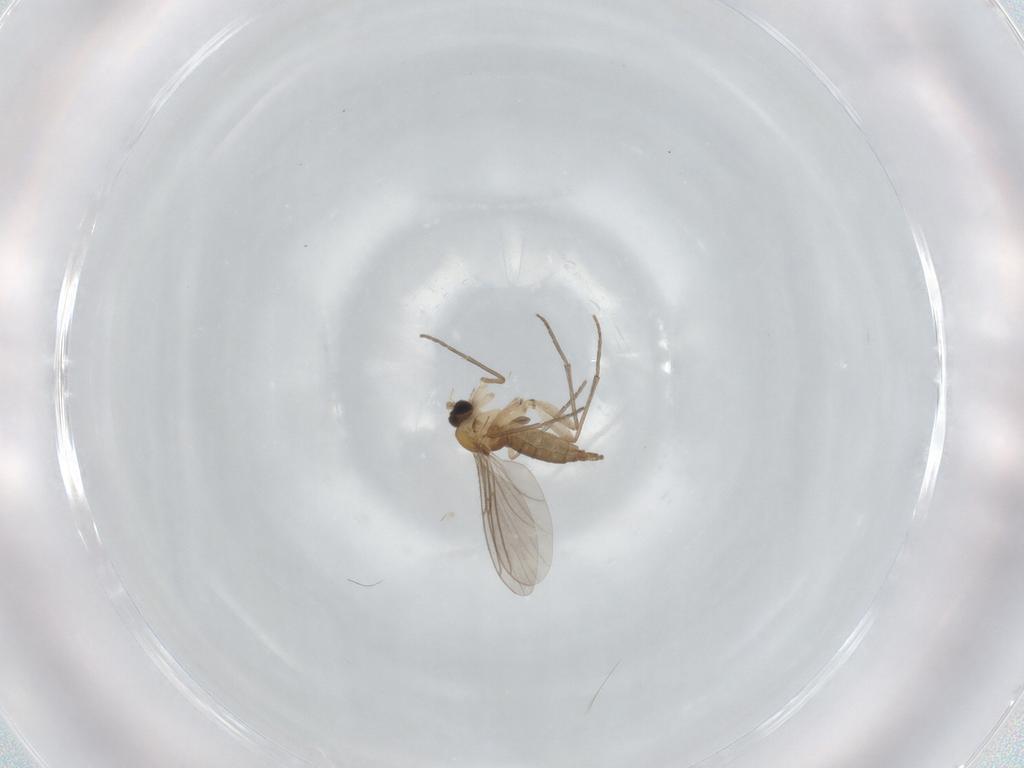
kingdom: Animalia
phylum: Arthropoda
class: Insecta
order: Diptera
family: Sciaridae
